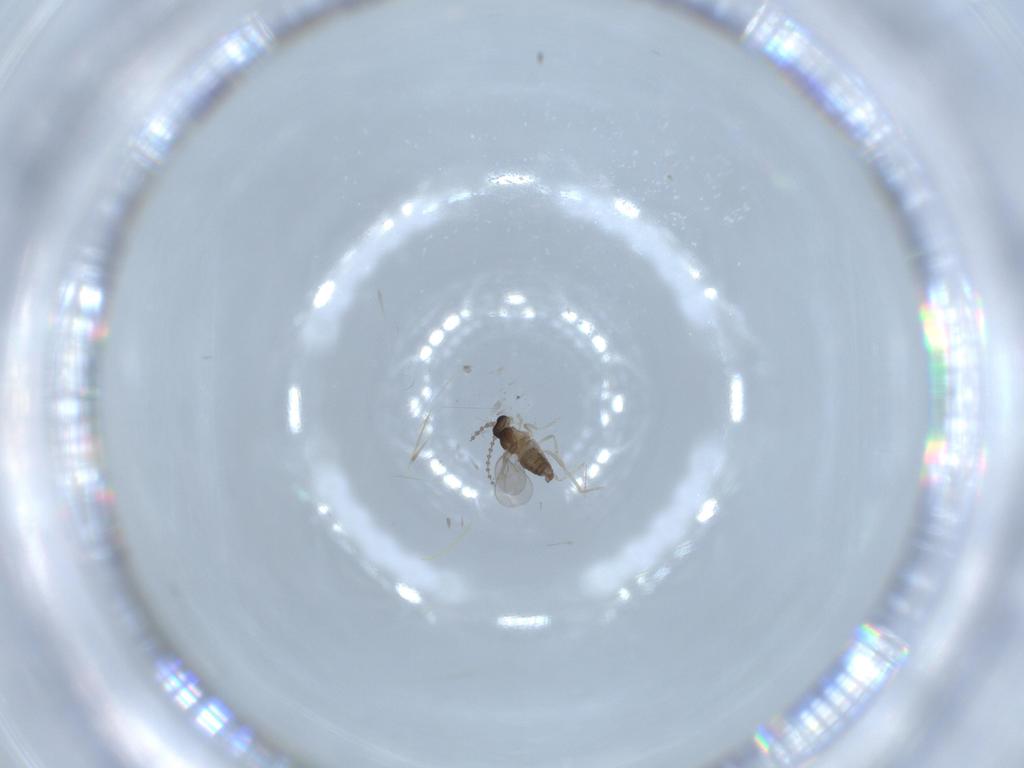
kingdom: Animalia
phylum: Arthropoda
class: Insecta
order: Diptera
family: Cecidomyiidae
